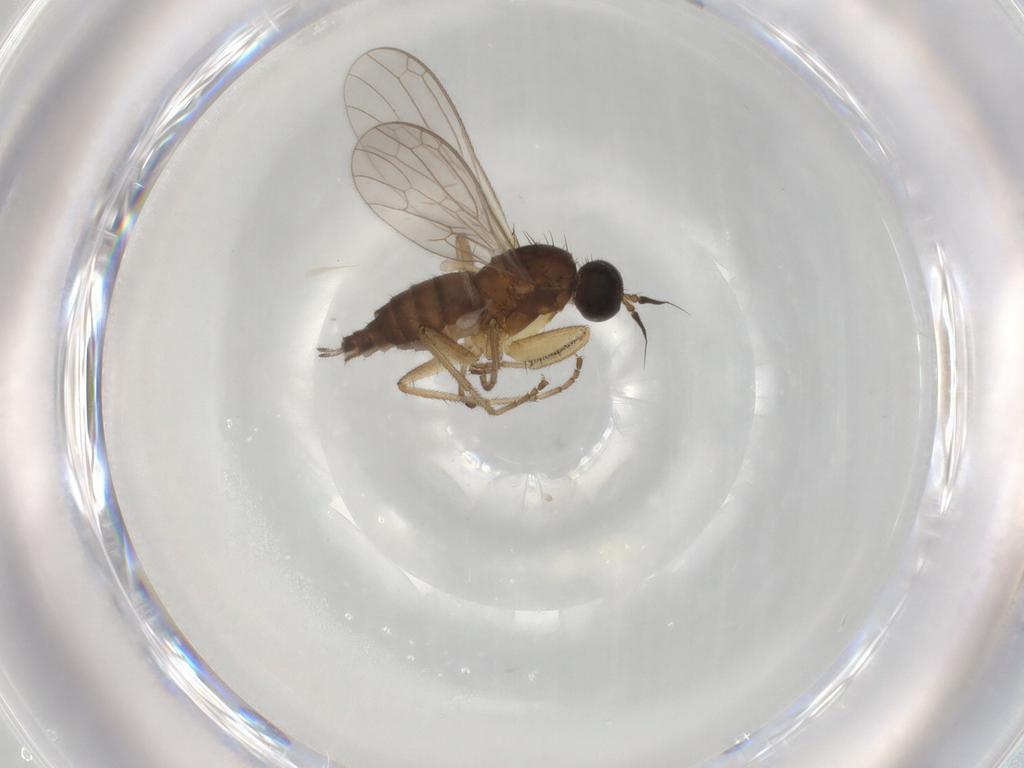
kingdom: Animalia
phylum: Arthropoda
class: Insecta
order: Diptera
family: Empididae
